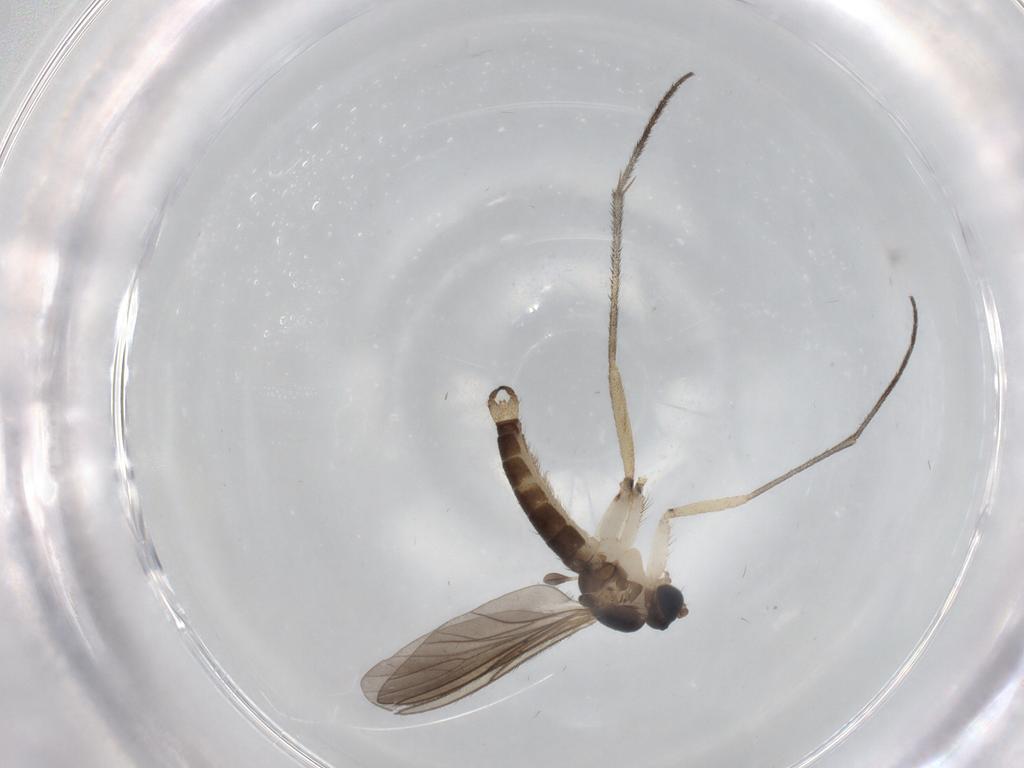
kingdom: Animalia
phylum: Arthropoda
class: Insecta
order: Diptera
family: Sciaridae
